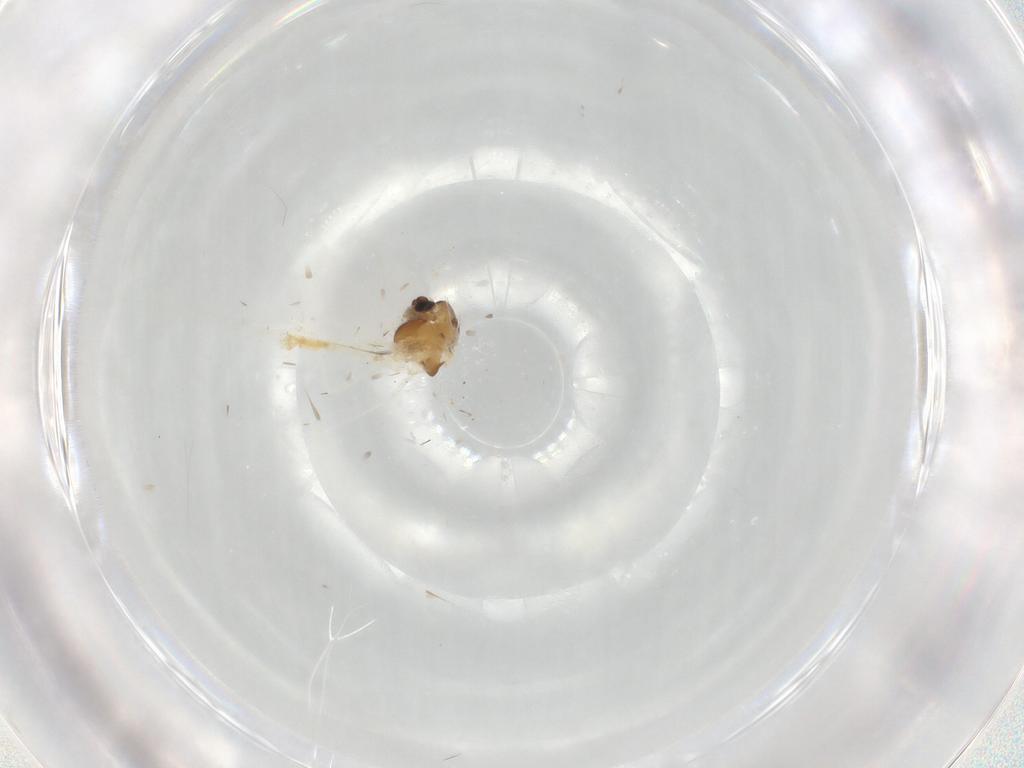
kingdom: Animalia
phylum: Arthropoda
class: Insecta
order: Diptera
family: Chironomidae
